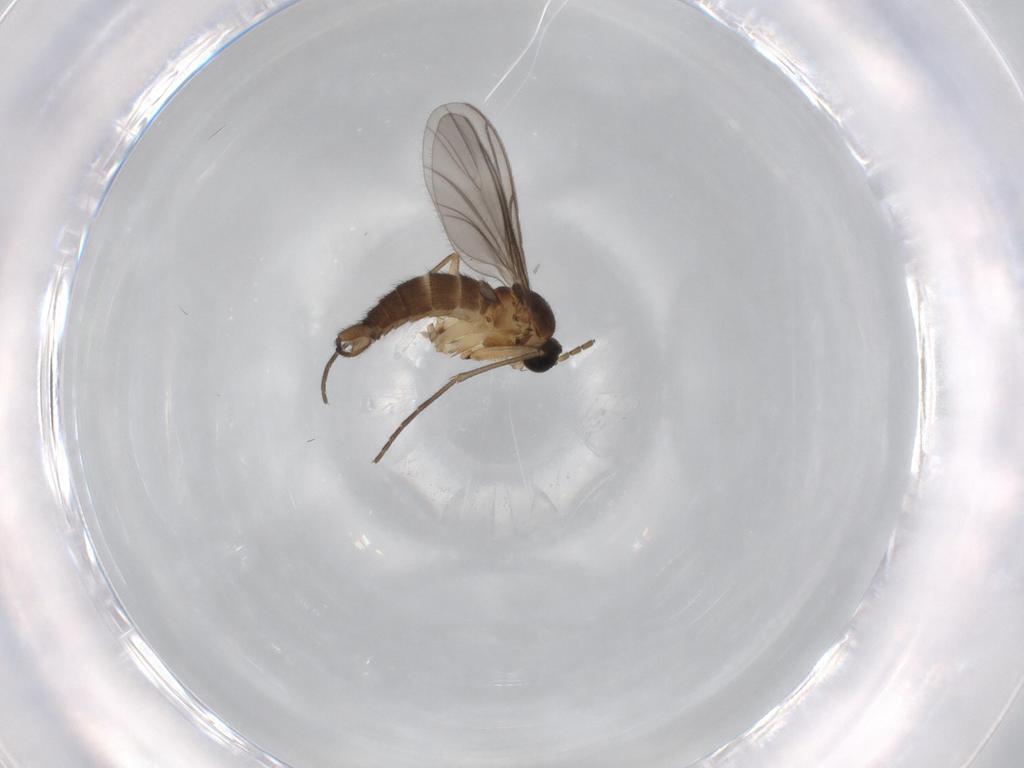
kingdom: Animalia
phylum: Arthropoda
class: Insecta
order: Diptera
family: Sciaridae
